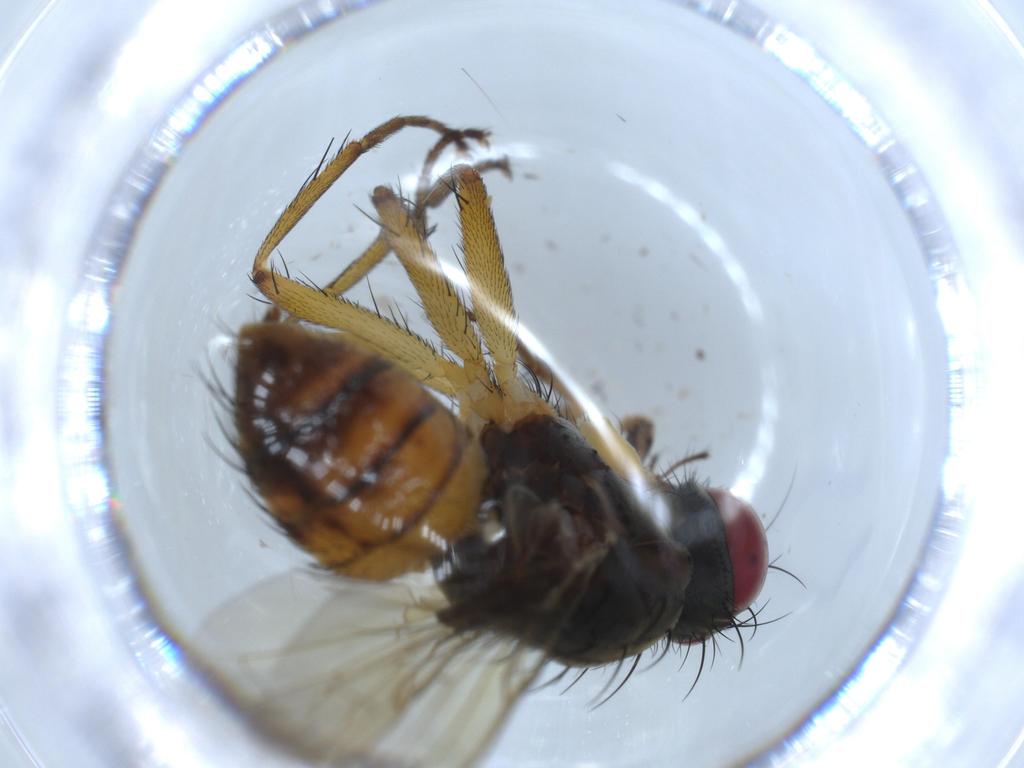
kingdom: Animalia
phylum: Arthropoda
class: Insecta
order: Diptera
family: Muscidae
